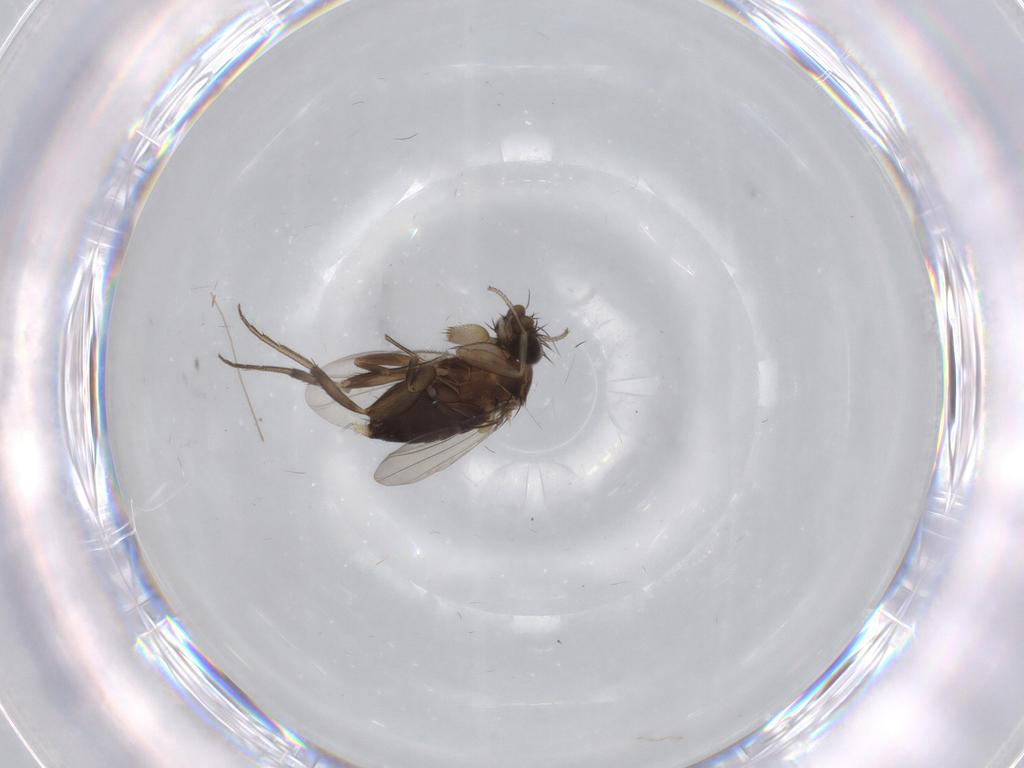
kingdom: Animalia
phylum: Arthropoda
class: Insecta
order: Diptera
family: Phoridae
